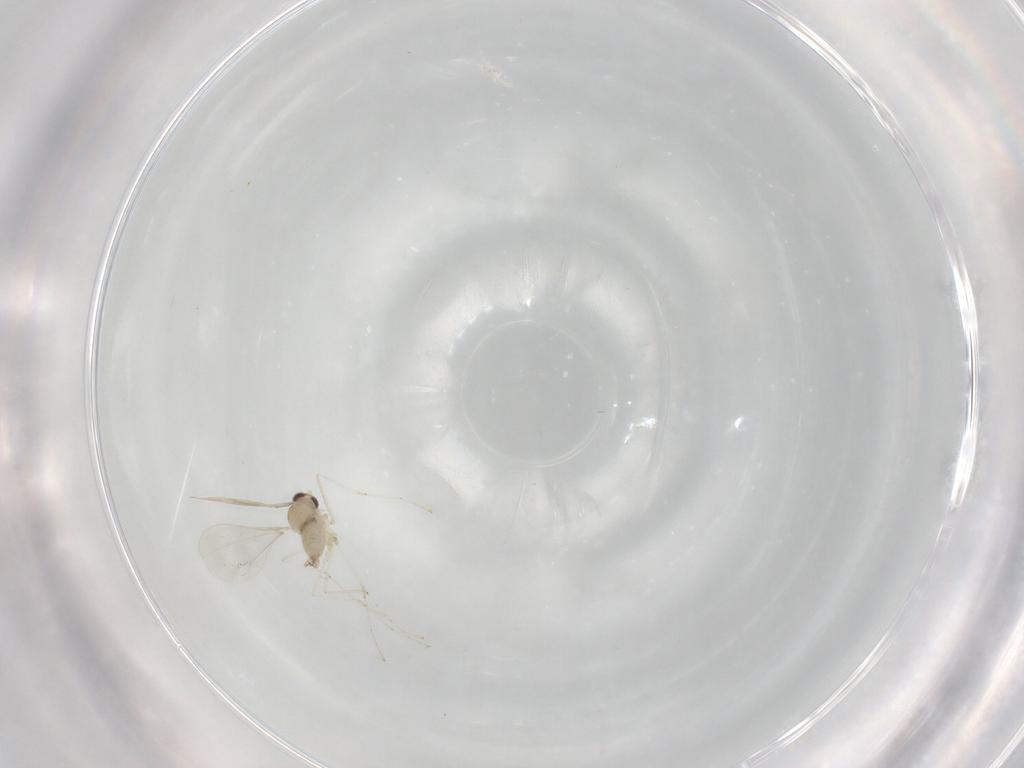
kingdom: Animalia
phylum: Arthropoda
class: Insecta
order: Diptera
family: Cecidomyiidae
